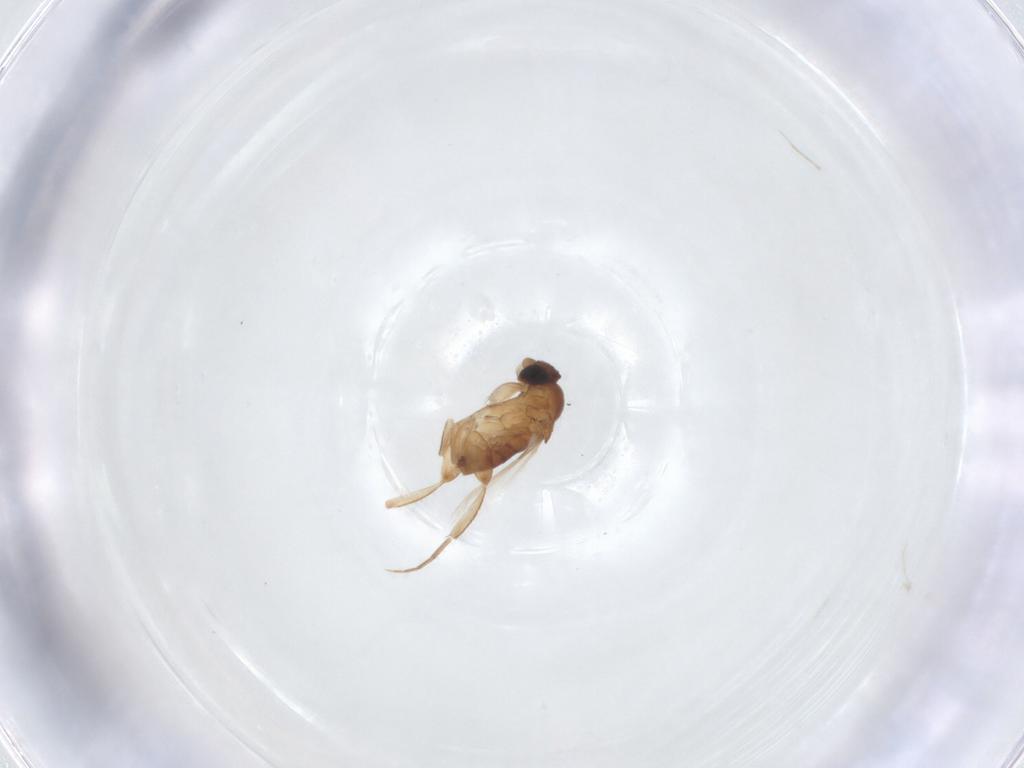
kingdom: Animalia
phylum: Arthropoda
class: Insecta
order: Diptera
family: Phoridae
